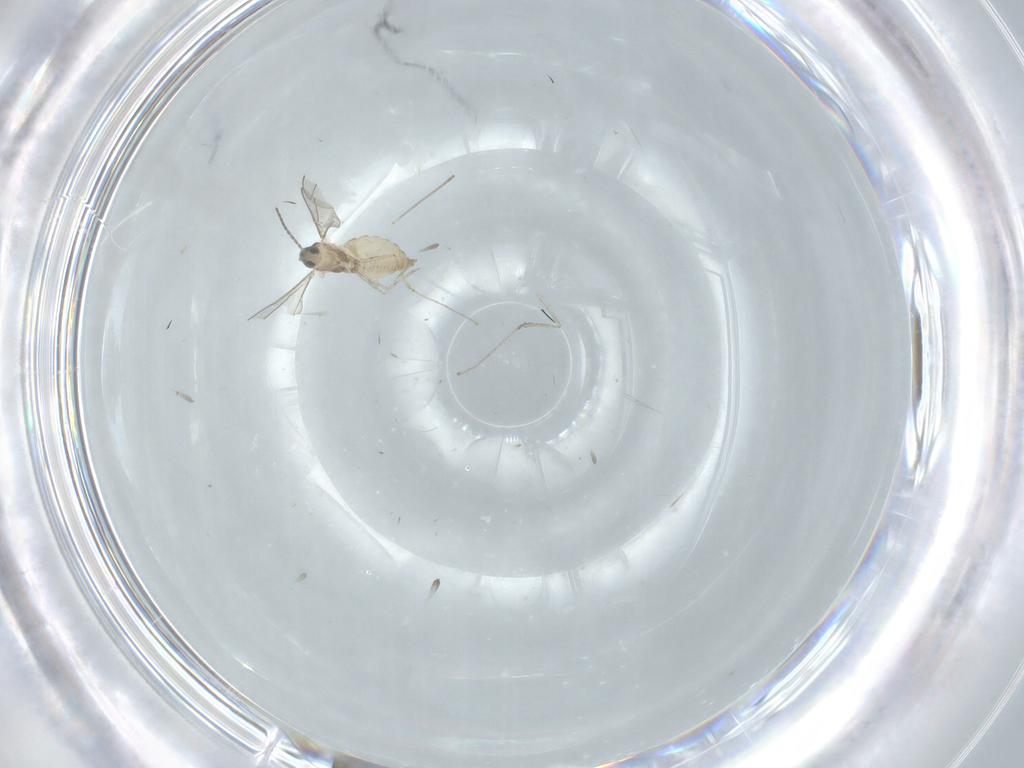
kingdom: Animalia
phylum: Arthropoda
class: Insecta
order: Diptera
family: Cecidomyiidae
